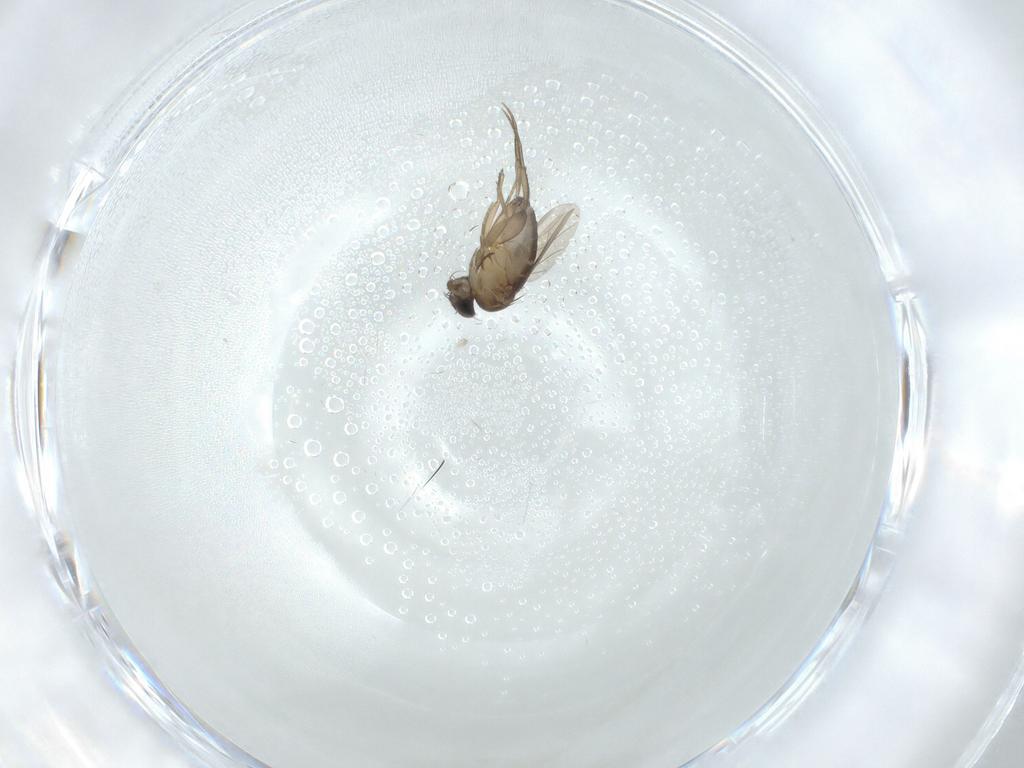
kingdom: Animalia
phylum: Arthropoda
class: Insecta
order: Diptera
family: Phoridae
